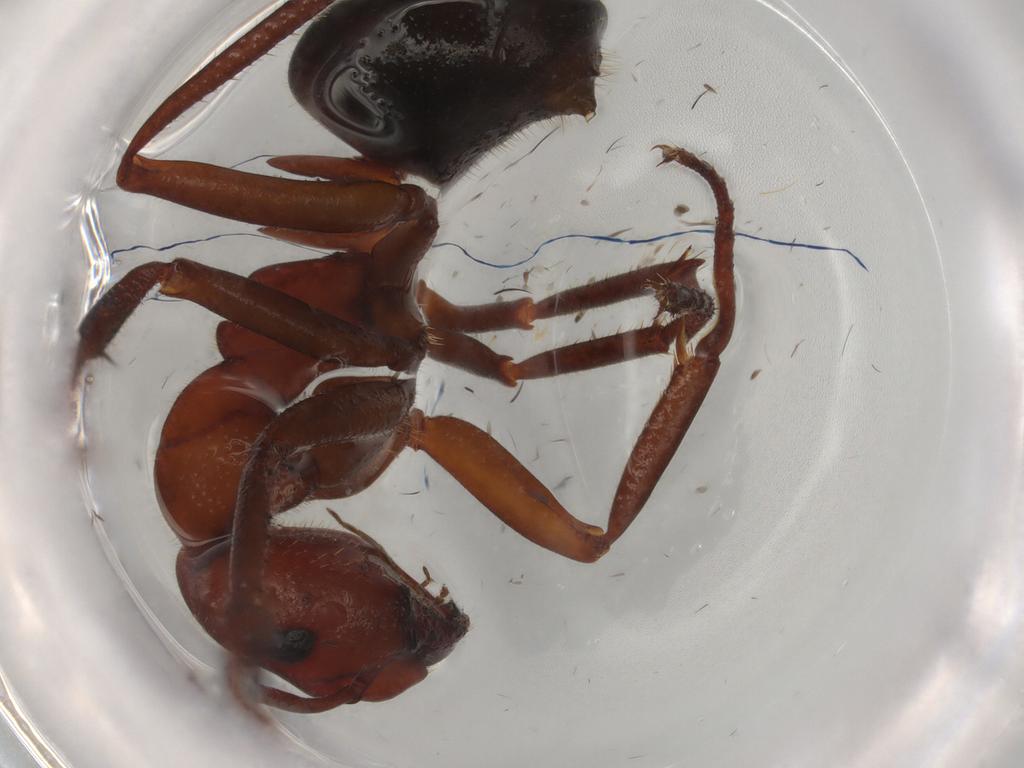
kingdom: Animalia
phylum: Arthropoda
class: Insecta
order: Hymenoptera
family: Scelionidae
